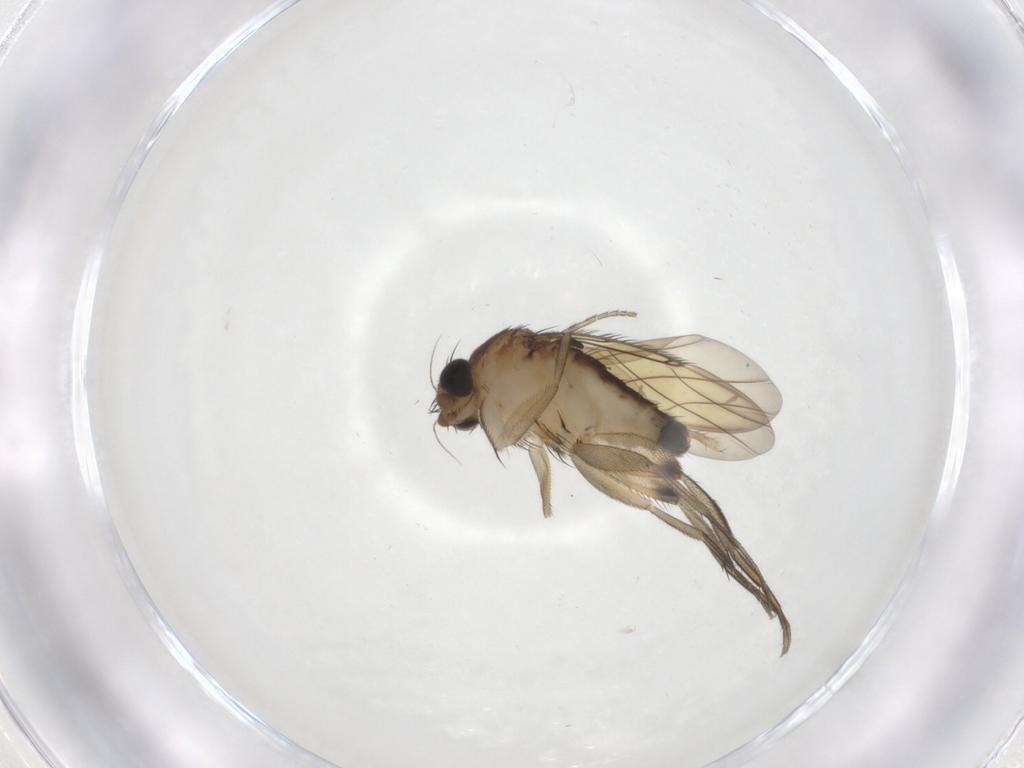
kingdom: Animalia
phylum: Arthropoda
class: Insecta
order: Diptera
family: Phoridae
